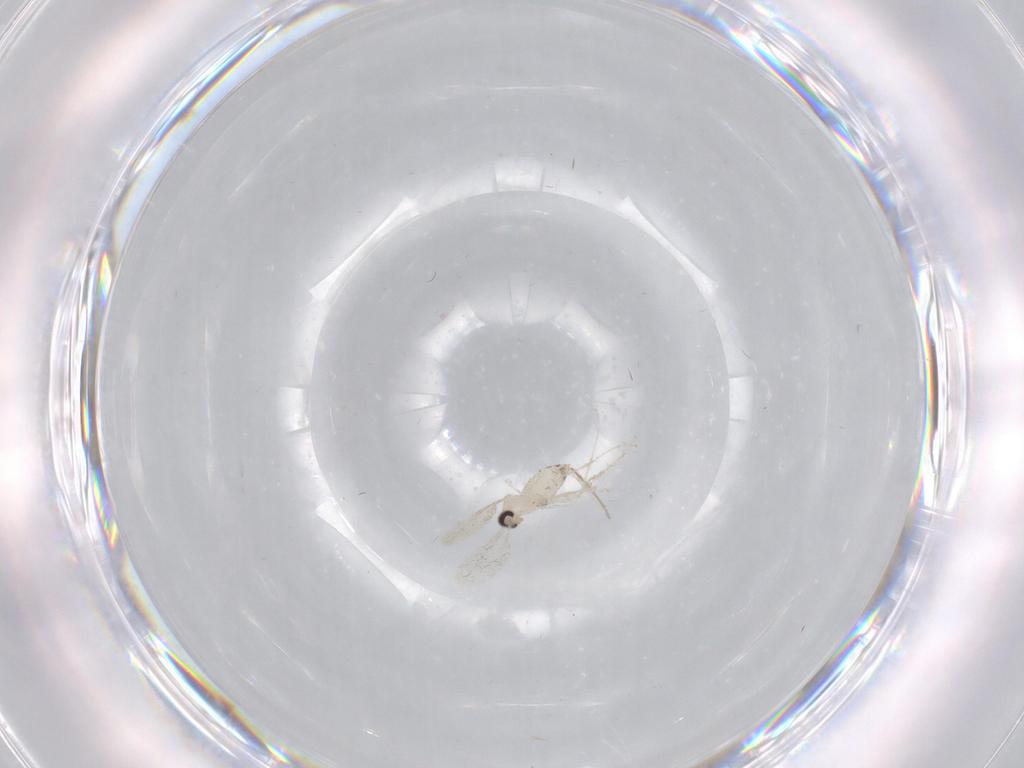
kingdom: Animalia
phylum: Arthropoda
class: Insecta
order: Diptera
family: Cecidomyiidae
